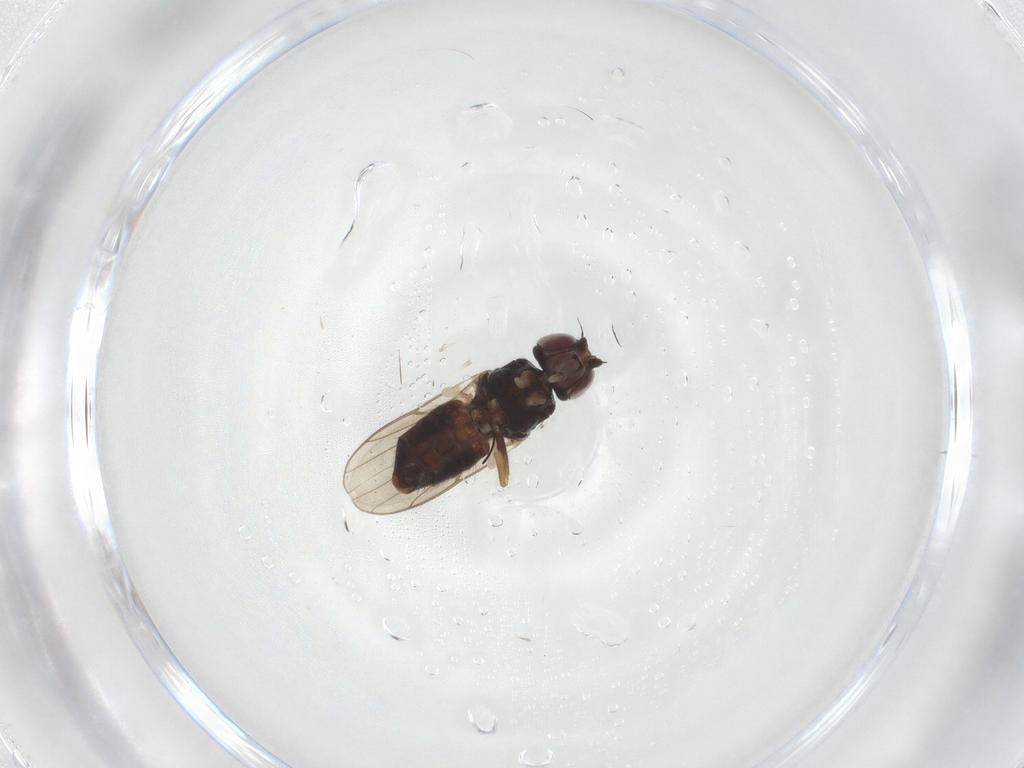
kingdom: Animalia
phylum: Arthropoda
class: Insecta
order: Diptera
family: Chloropidae
